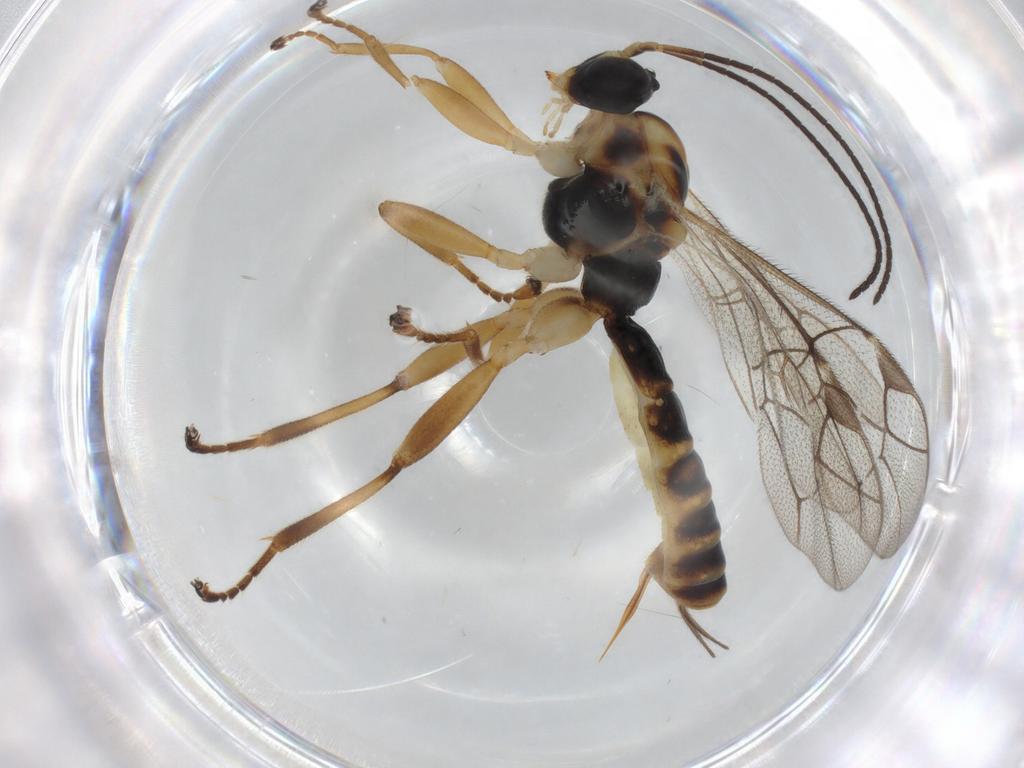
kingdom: Animalia
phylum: Arthropoda
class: Insecta
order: Hymenoptera
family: Ichneumonidae
